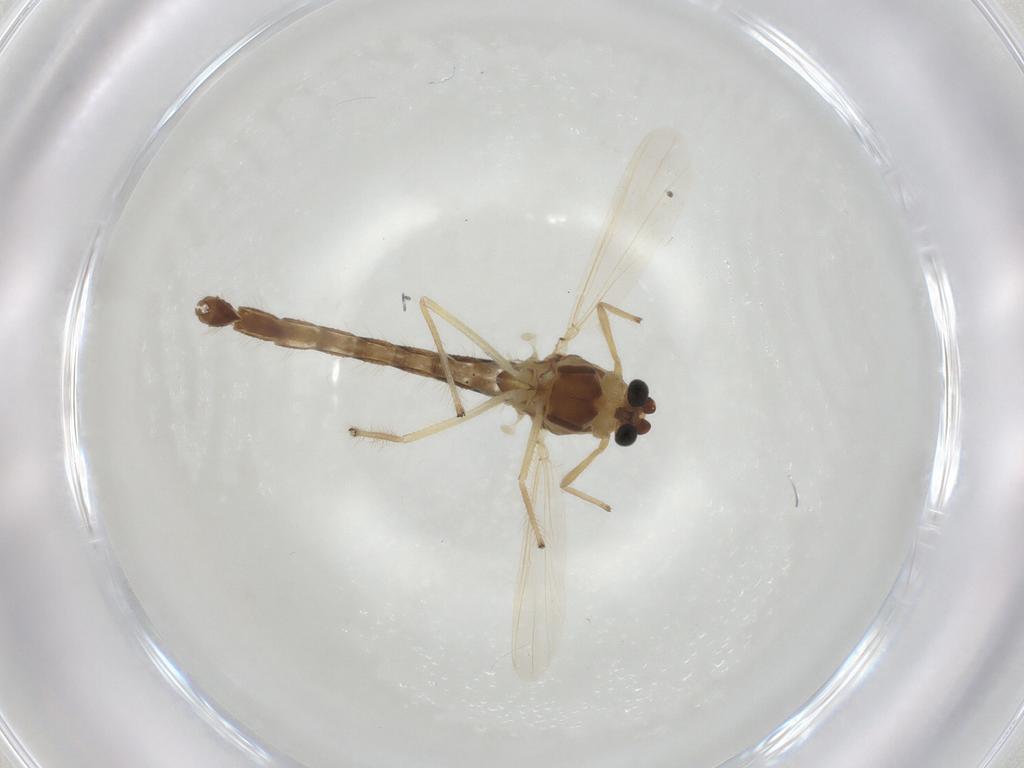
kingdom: Animalia
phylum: Arthropoda
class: Insecta
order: Diptera
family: Chironomidae
